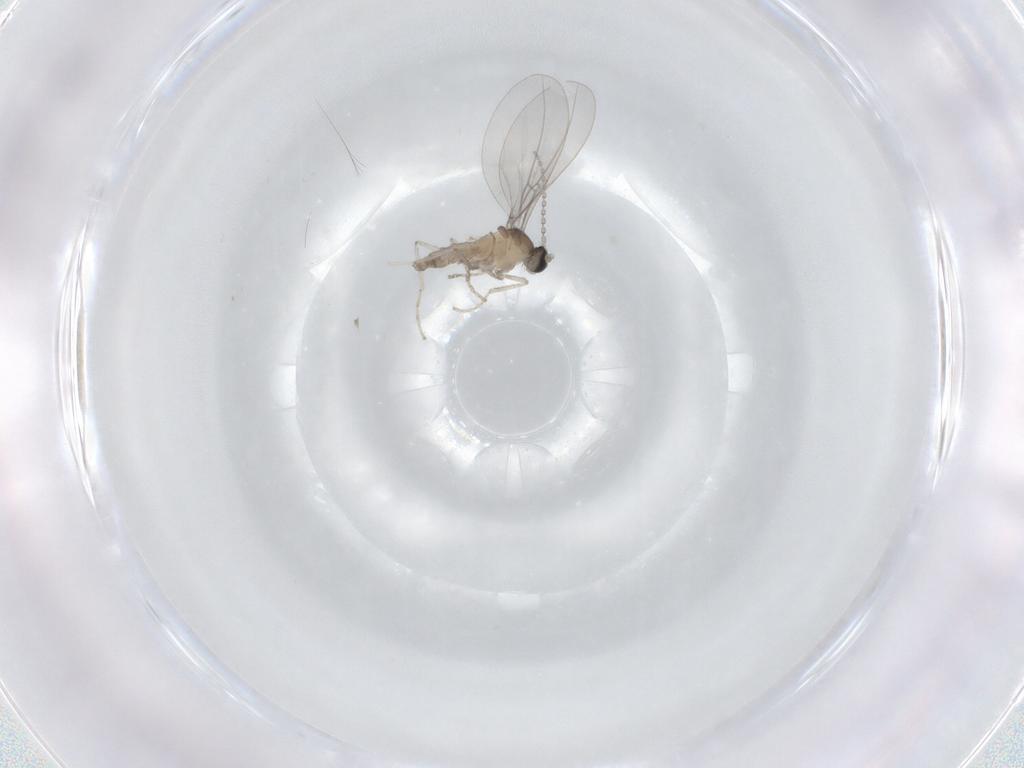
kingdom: Animalia
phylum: Arthropoda
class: Insecta
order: Diptera
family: Cecidomyiidae
